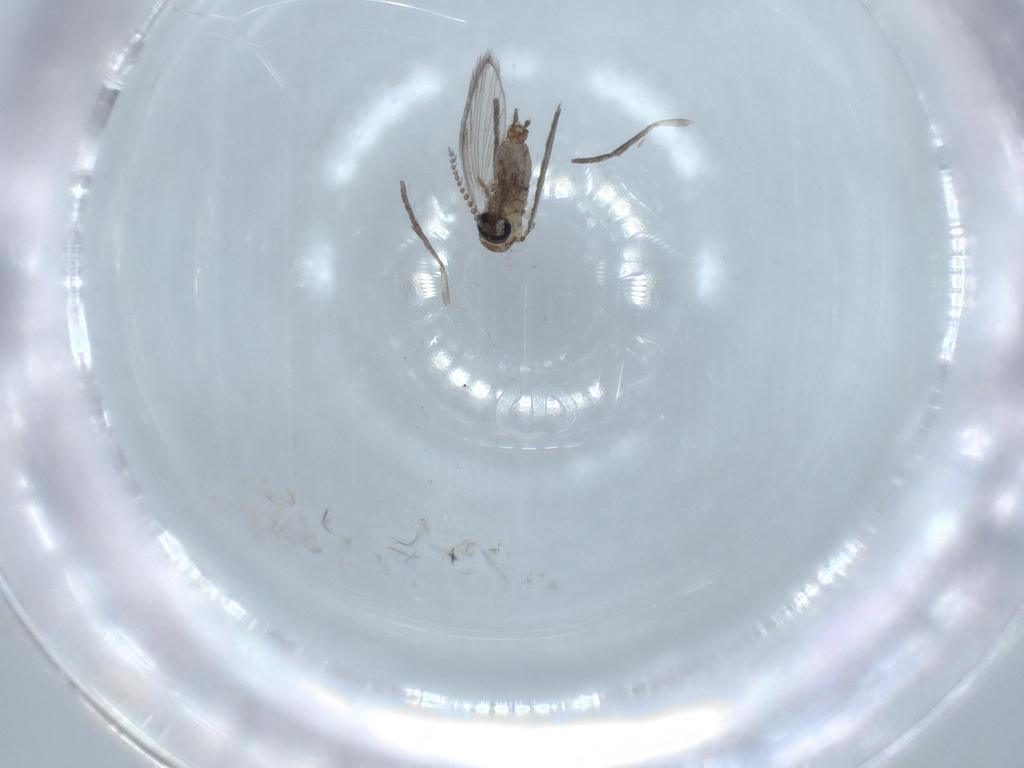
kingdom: Animalia
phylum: Arthropoda
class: Insecta
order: Diptera
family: Psychodidae
